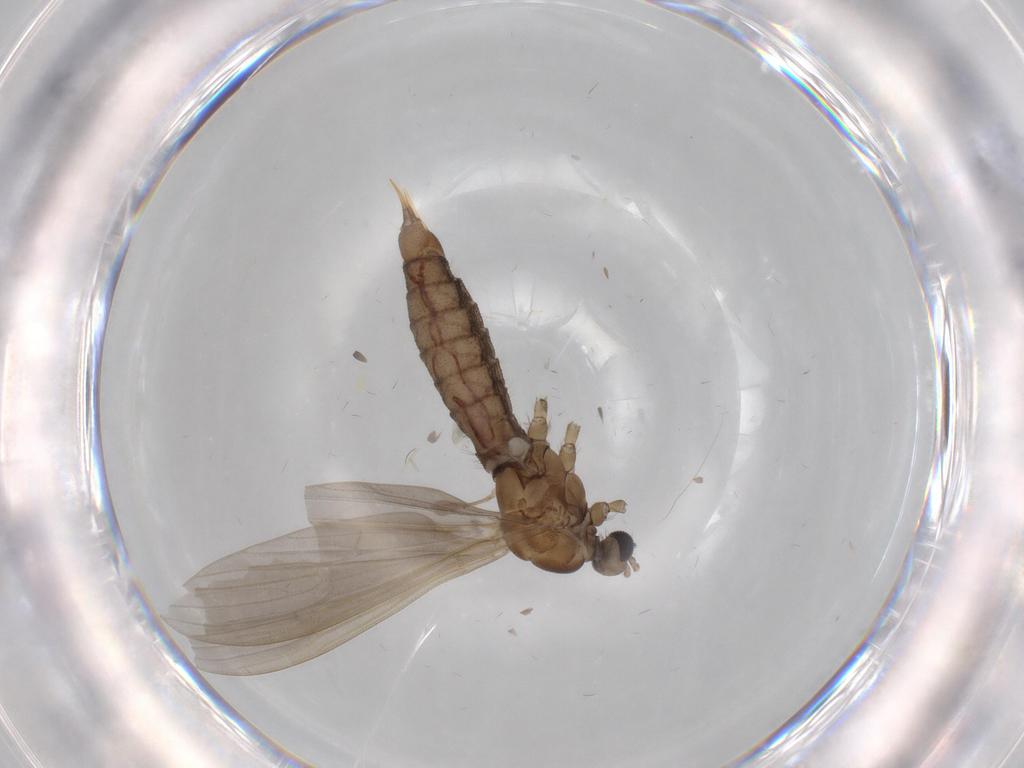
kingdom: Animalia
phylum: Arthropoda
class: Insecta
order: Diptera
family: Limoniidae
